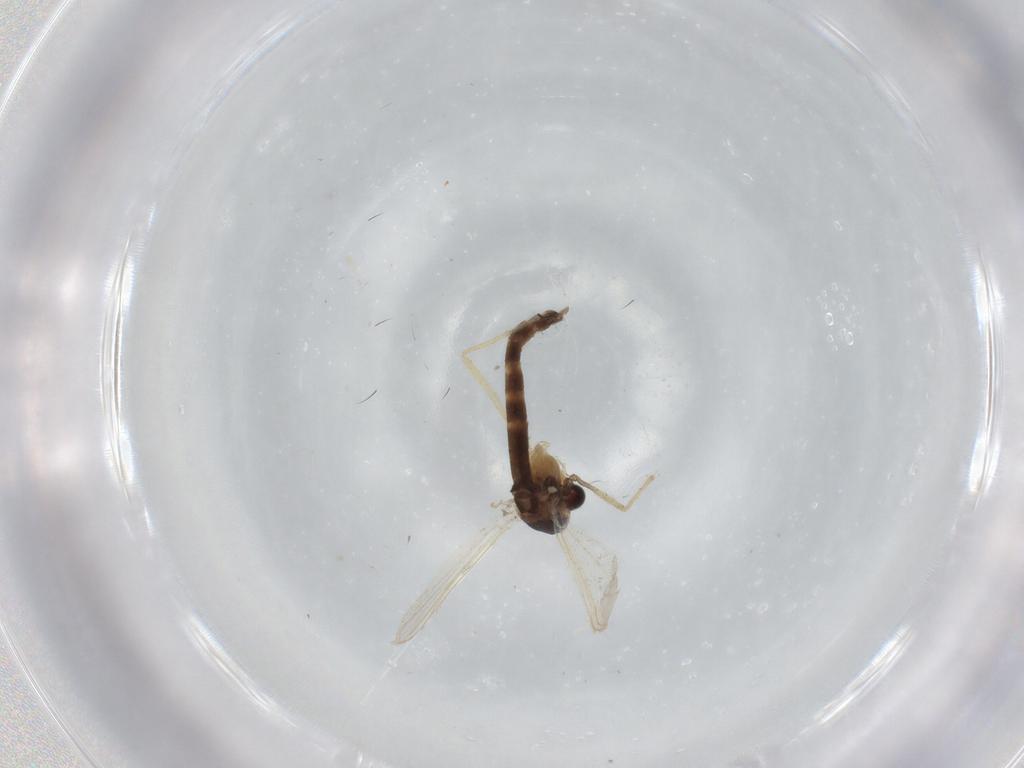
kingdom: Animalia
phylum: Arthropoda
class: Insecta
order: Diptera
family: Chironomidae
